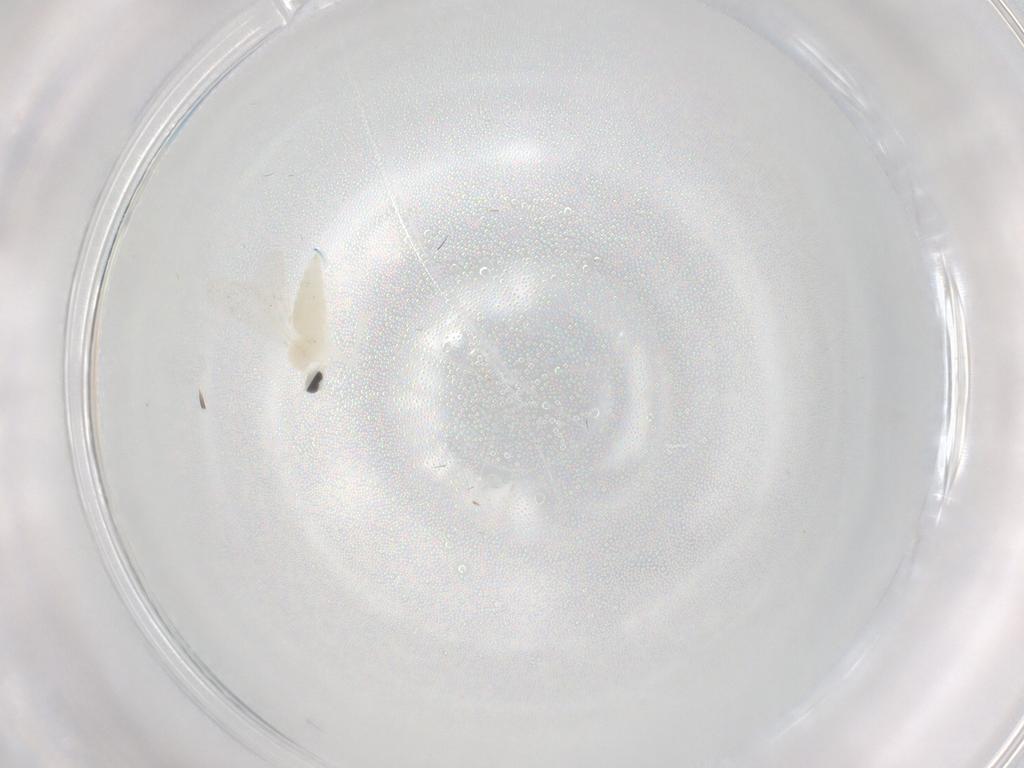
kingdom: Animalia
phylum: Arthropoda
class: Insecta
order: Diptera
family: Cecidomyiidae
